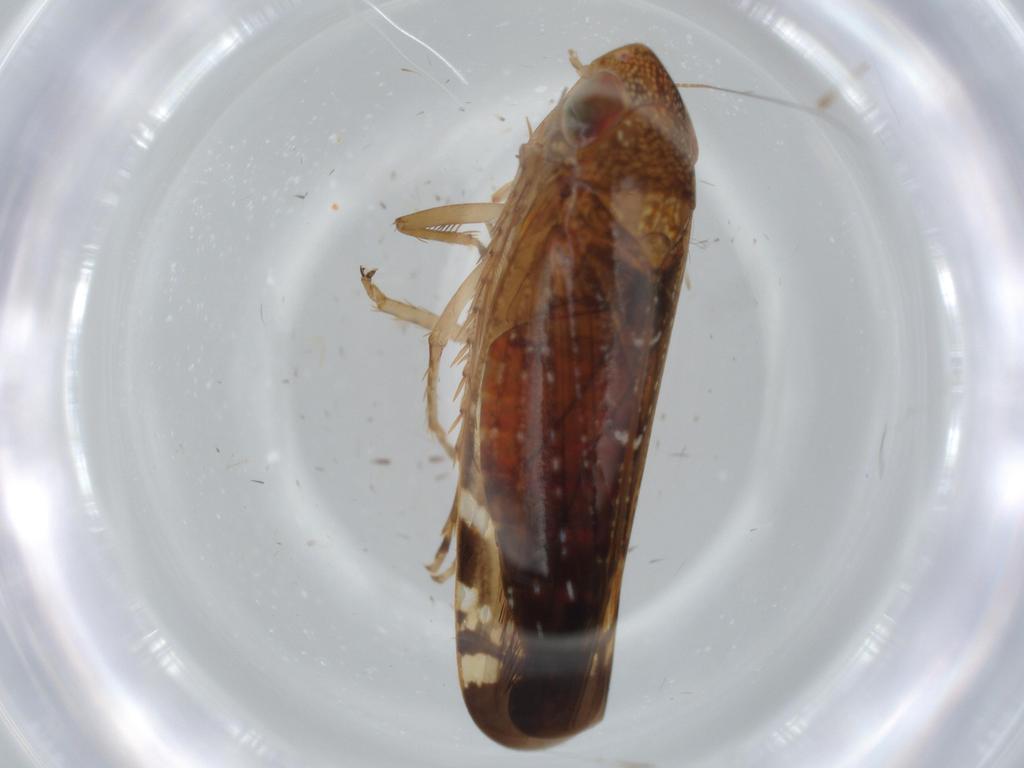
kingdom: Animalia
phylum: Arthropoda
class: Insecta
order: Hemiptera
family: Cicadellidae
